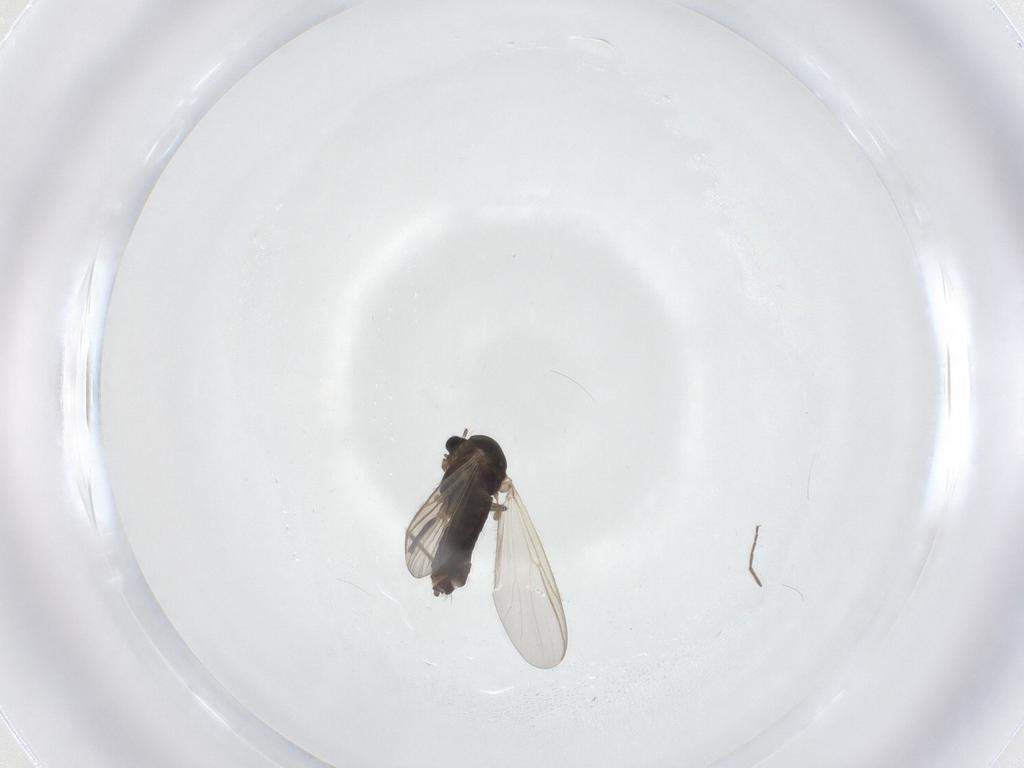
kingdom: Animalia
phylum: Arthropoda
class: Insecta
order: Diptera
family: Chironomidae
